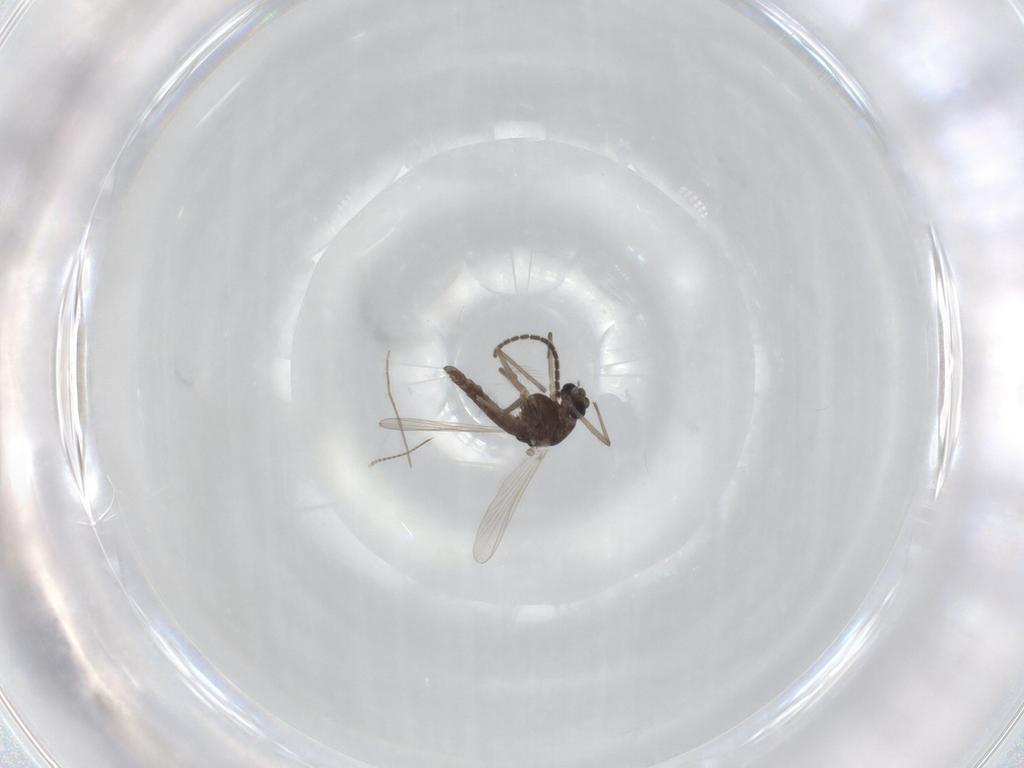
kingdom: Animalia
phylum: Arthropoda
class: Insecta
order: Diptera
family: Chironomidae
